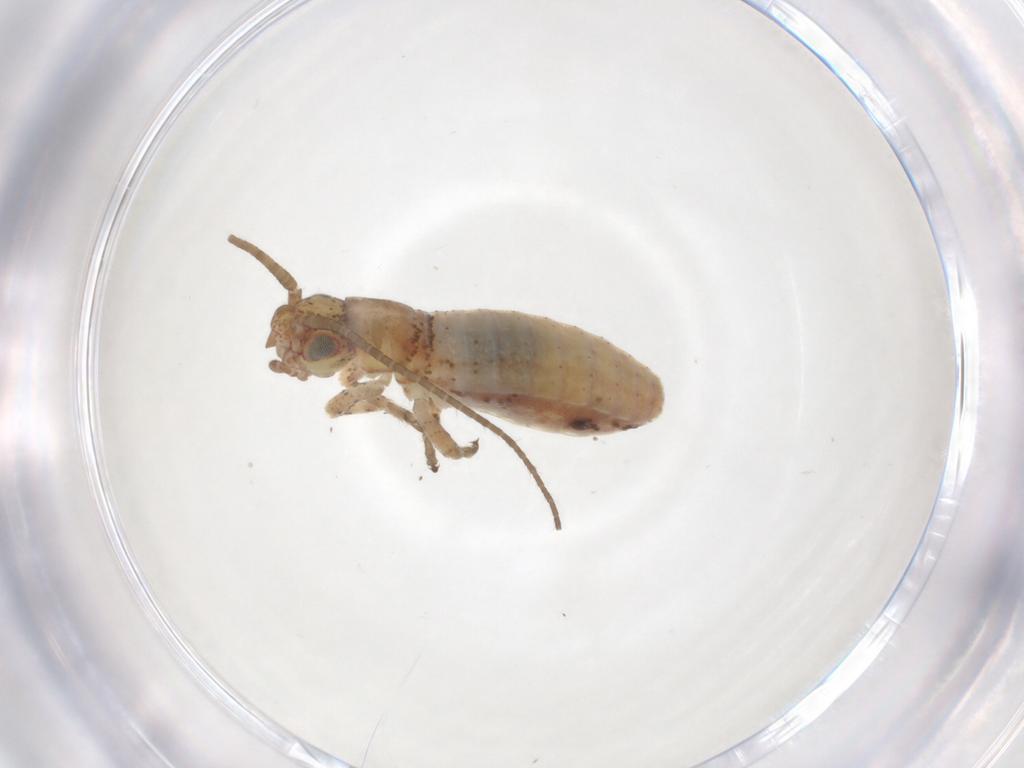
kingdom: Animalia
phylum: Arthropoda
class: Insecta
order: Orthoptera
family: Mogoplistidae
